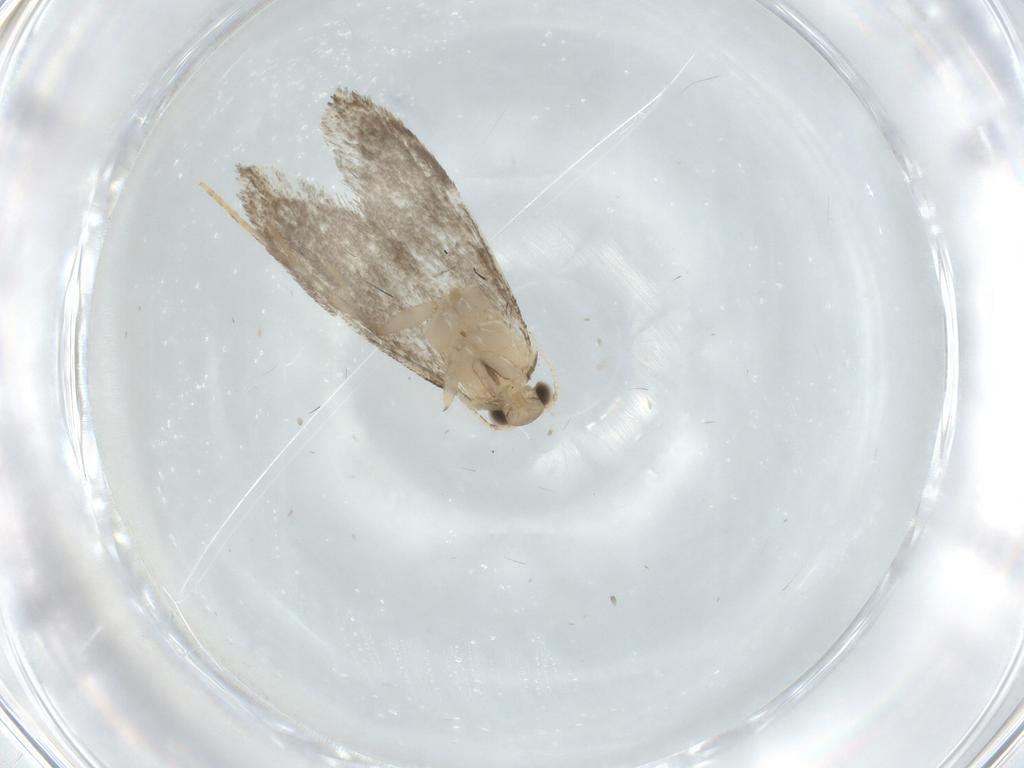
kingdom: Animalia
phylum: Arthropoda
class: Insecta
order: Lepidoptera
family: Tineidae
